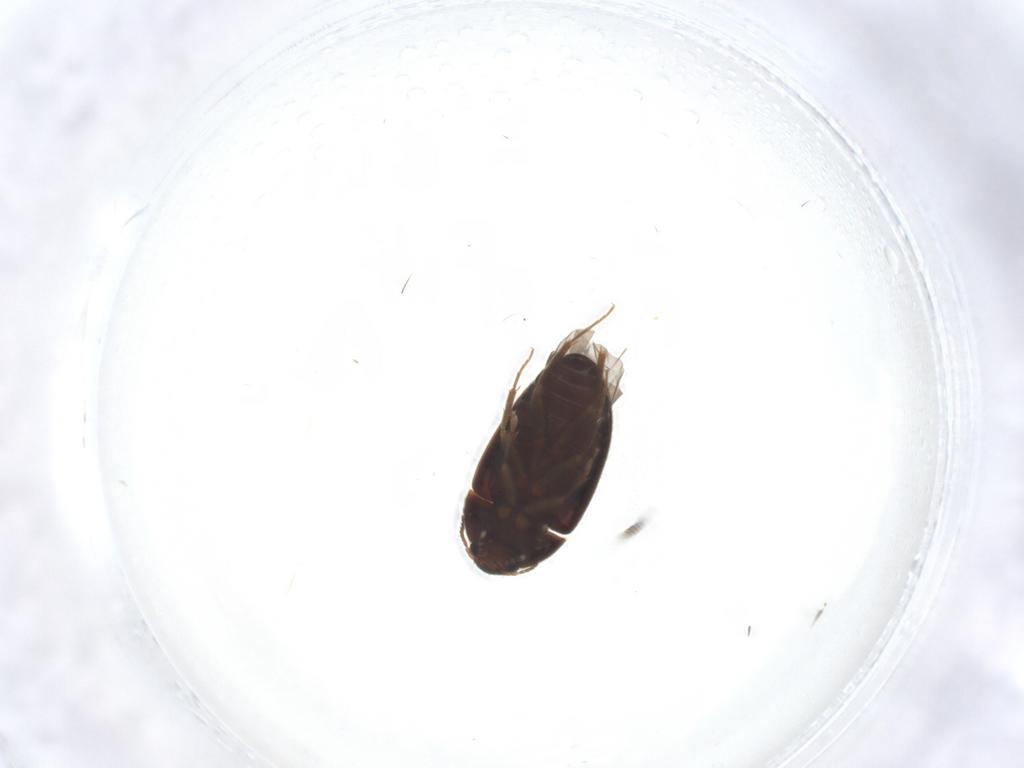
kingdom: Animalia
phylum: Arthropoda
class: Insecta
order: Coleoptera
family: Mycetophagidae
